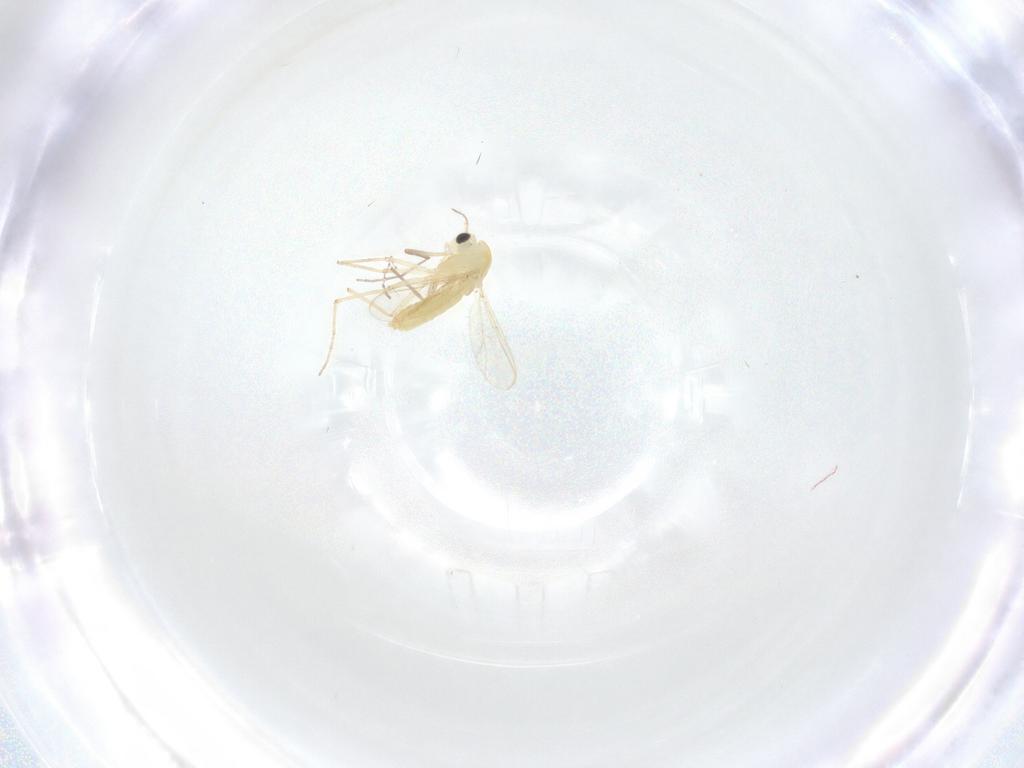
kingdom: Animalia
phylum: Arthropoda
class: Insecta
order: Diptera
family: Chironomidae
